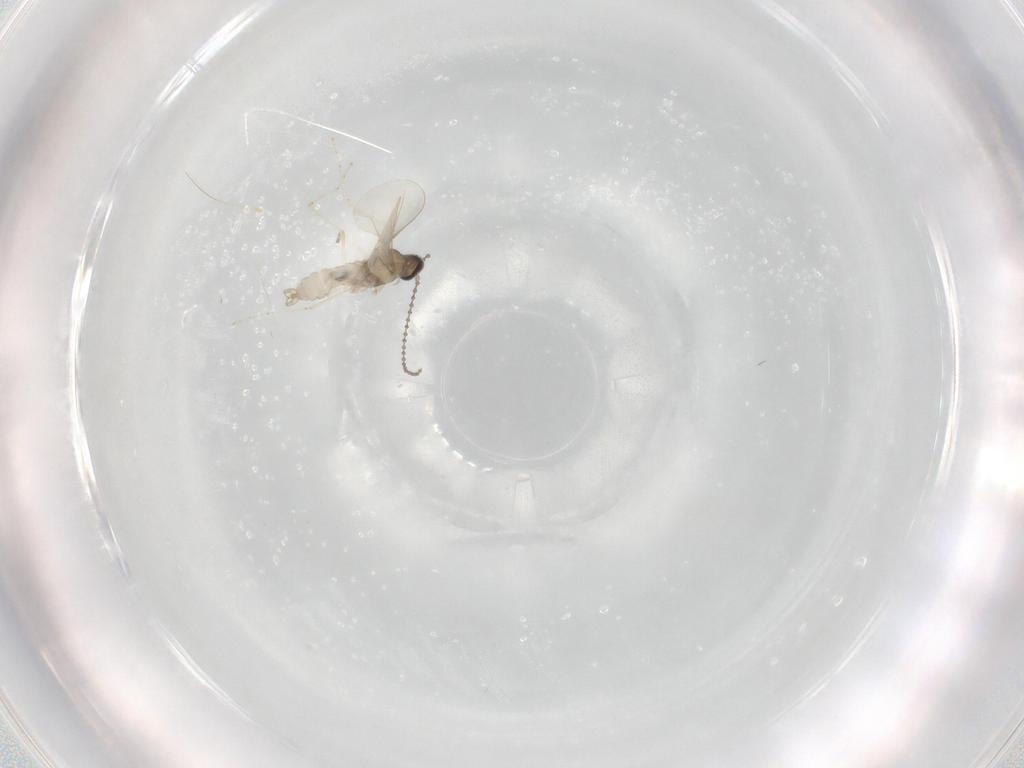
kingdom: Animalia
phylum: Arthropoda
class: Insecta
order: Diptera
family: Cecidomyiidae
